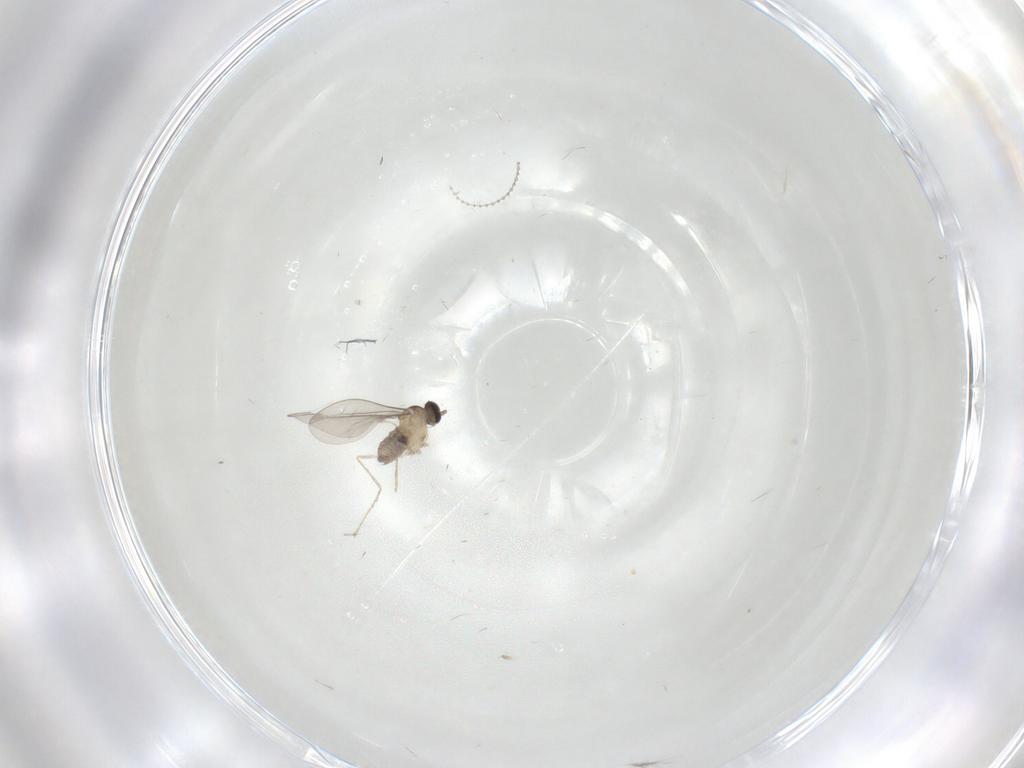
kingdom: Animalia
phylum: Arthropoda
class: Insecta
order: Diptera
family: Cecidomyiidae
